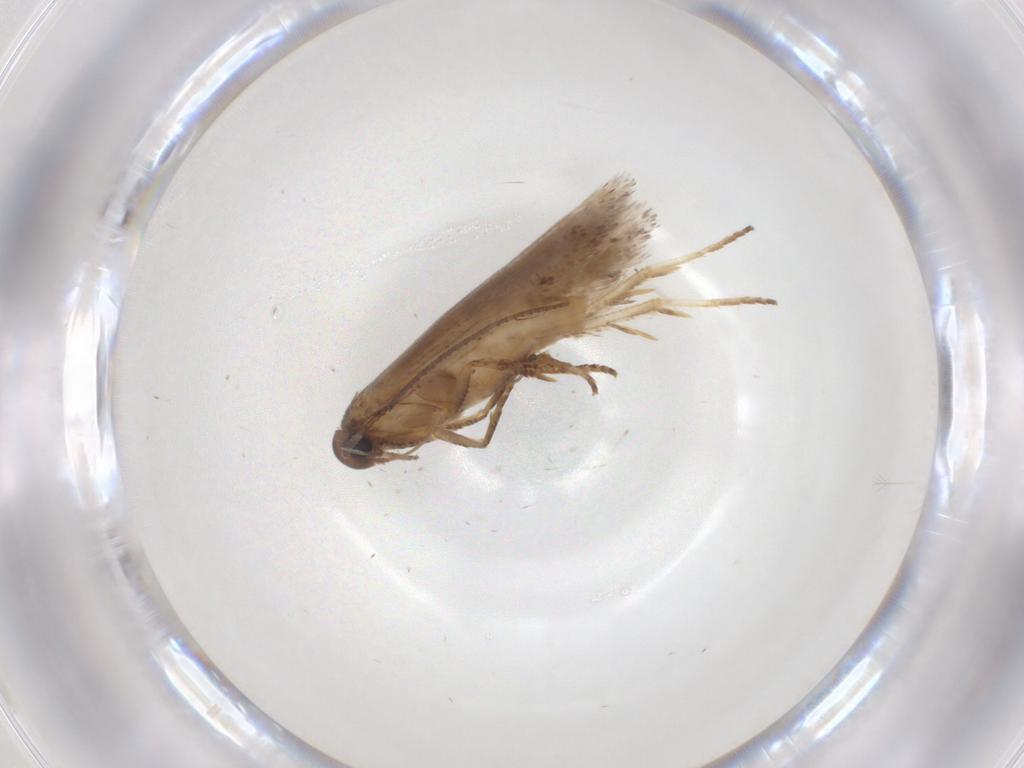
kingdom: Animalia
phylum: Arthropoda
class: Insecta
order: Lepidoptera
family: Gelechiidae
